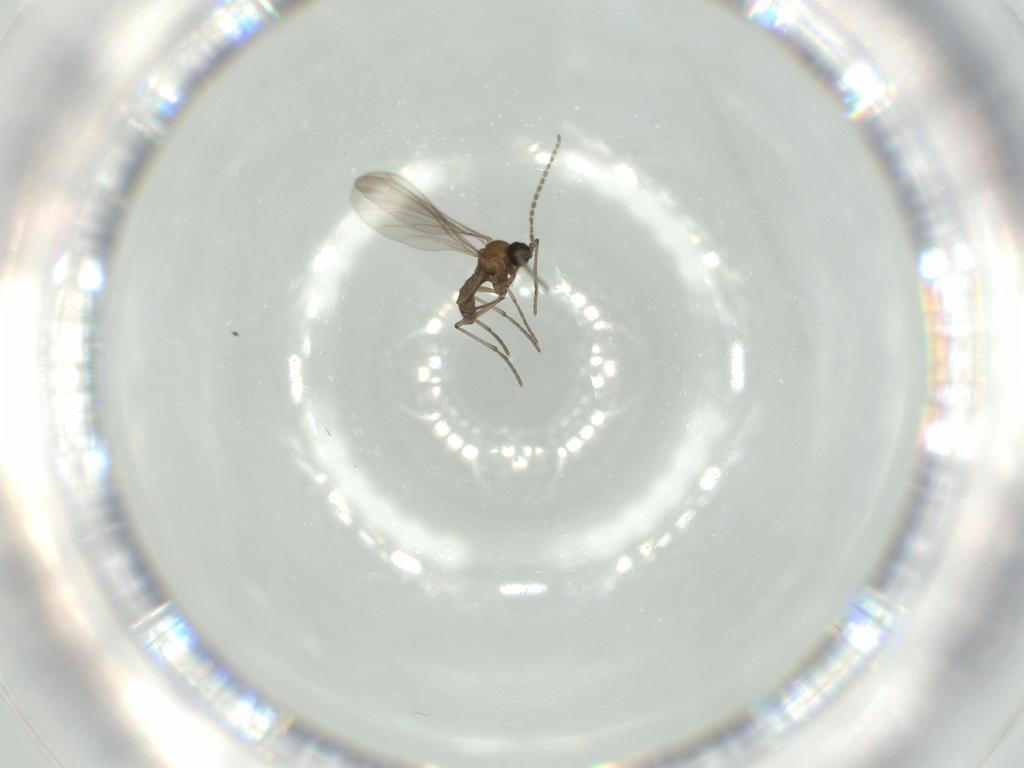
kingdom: Animalia
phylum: Arthropoda
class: Insecta
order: Diptera
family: Sciaridae
